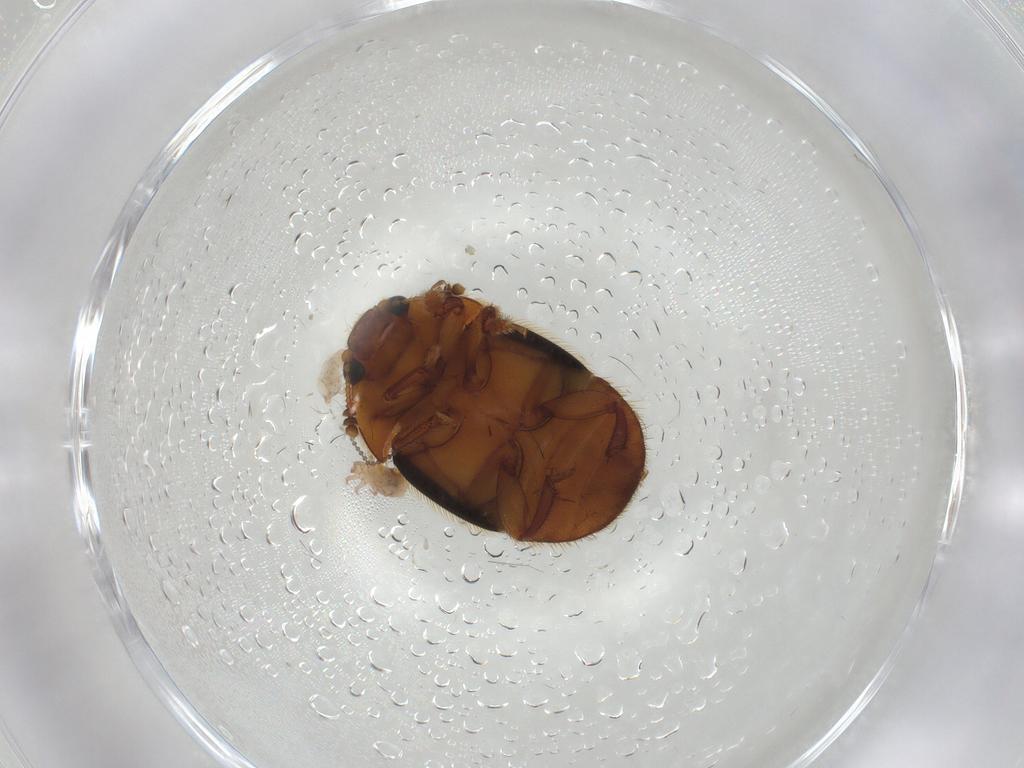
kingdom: Animalia
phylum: Arthropoda
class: Insecta
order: Coleoptera
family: Nitidulidae
